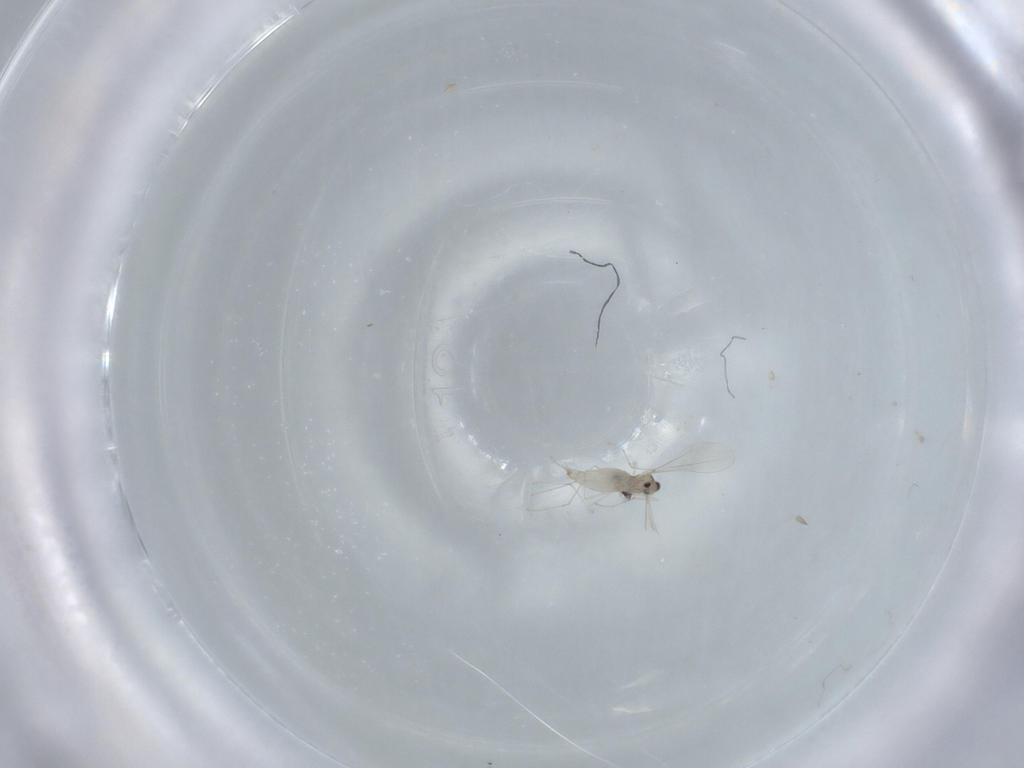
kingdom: Animalia
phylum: Arthropoda
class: Insecta
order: Diptera
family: Cecidomyiidae
